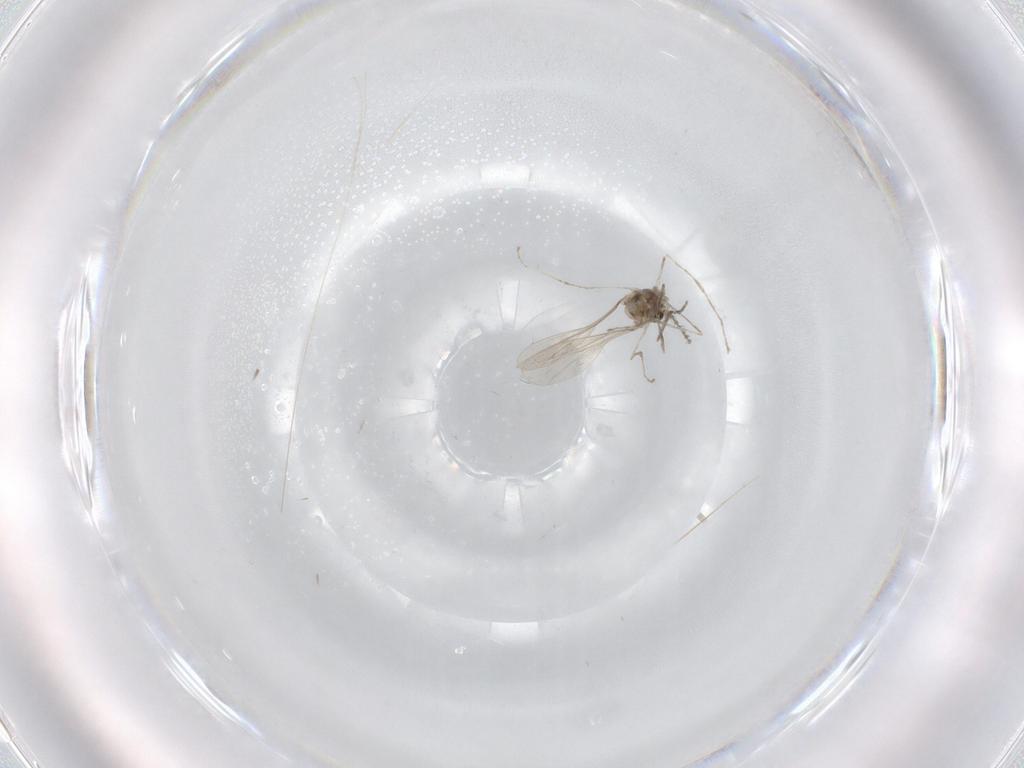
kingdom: Animalia
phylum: Arthropoda
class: Insecta
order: Diptera
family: Cecidomyiidae
